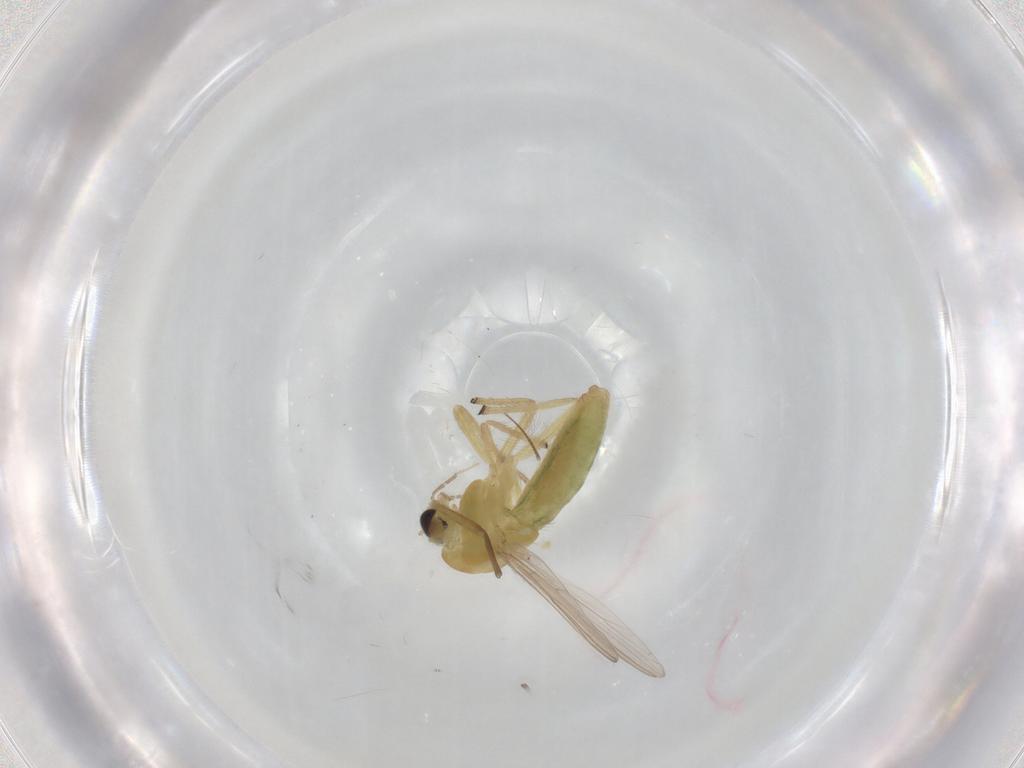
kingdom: Animalia
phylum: Arthropoda
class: Insecta
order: Diptera
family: Chironomidae
